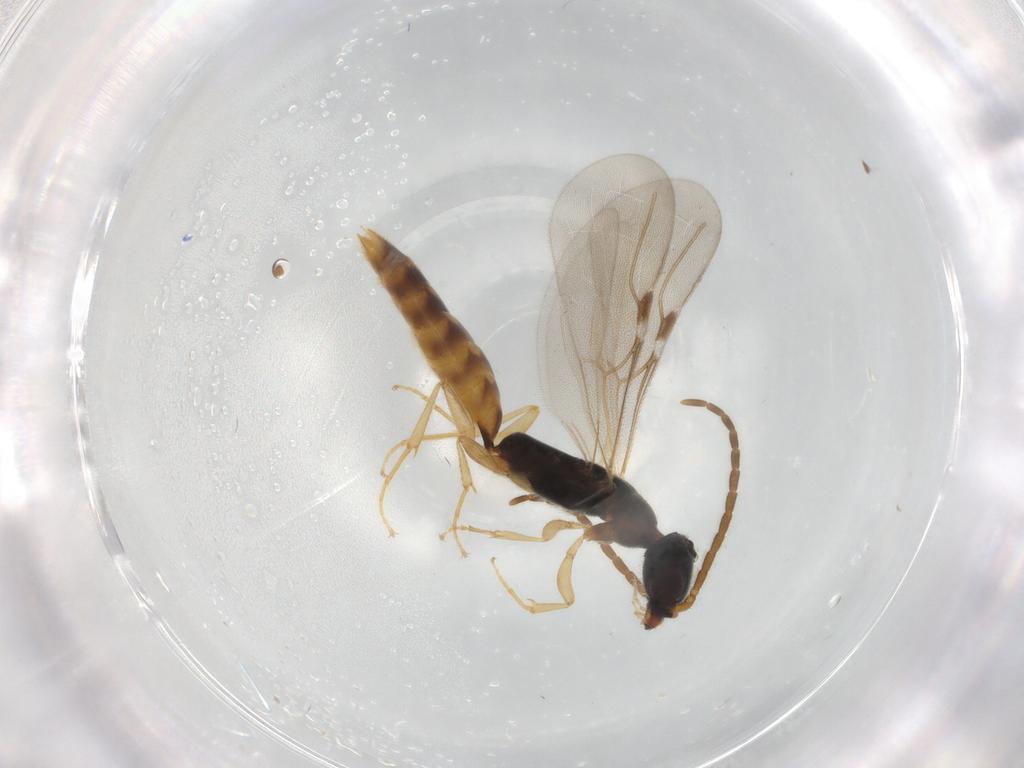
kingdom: Animalia
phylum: Arthropoda
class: Insecta
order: Hymenoptera
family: Bethylidae
